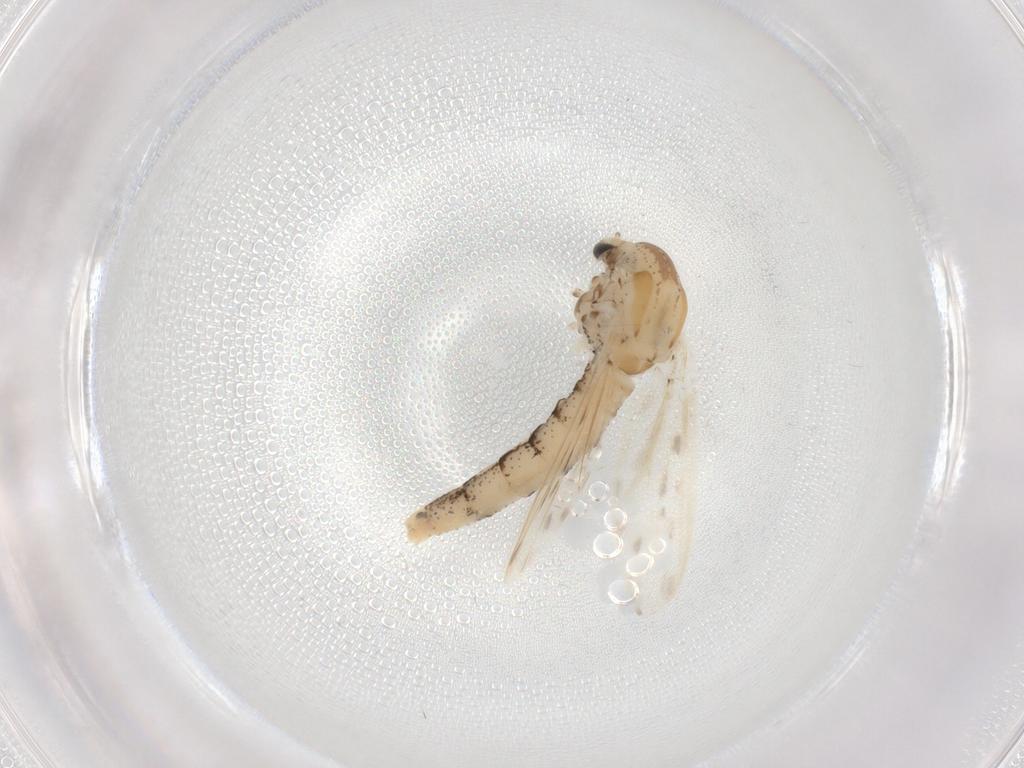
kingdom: Animalia
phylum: Arthropoda
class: Insecta
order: Diptera
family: Chaoboridae
